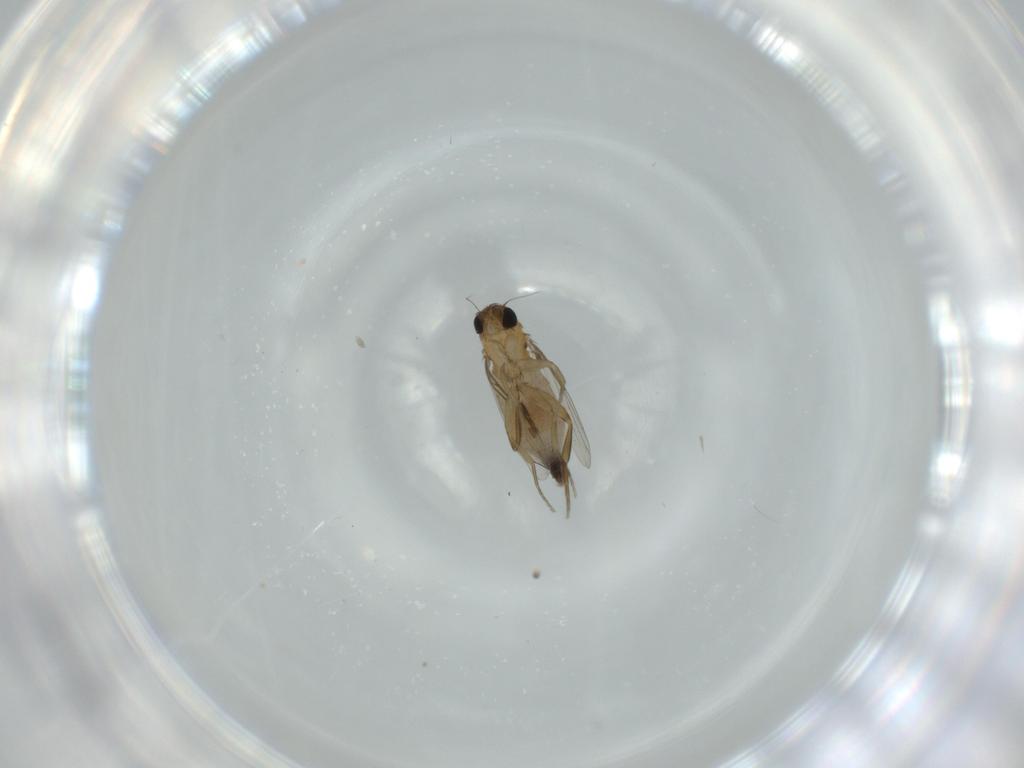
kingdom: Animalia
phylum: Arthropoda
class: Insecta
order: Diptera
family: Phoridae
